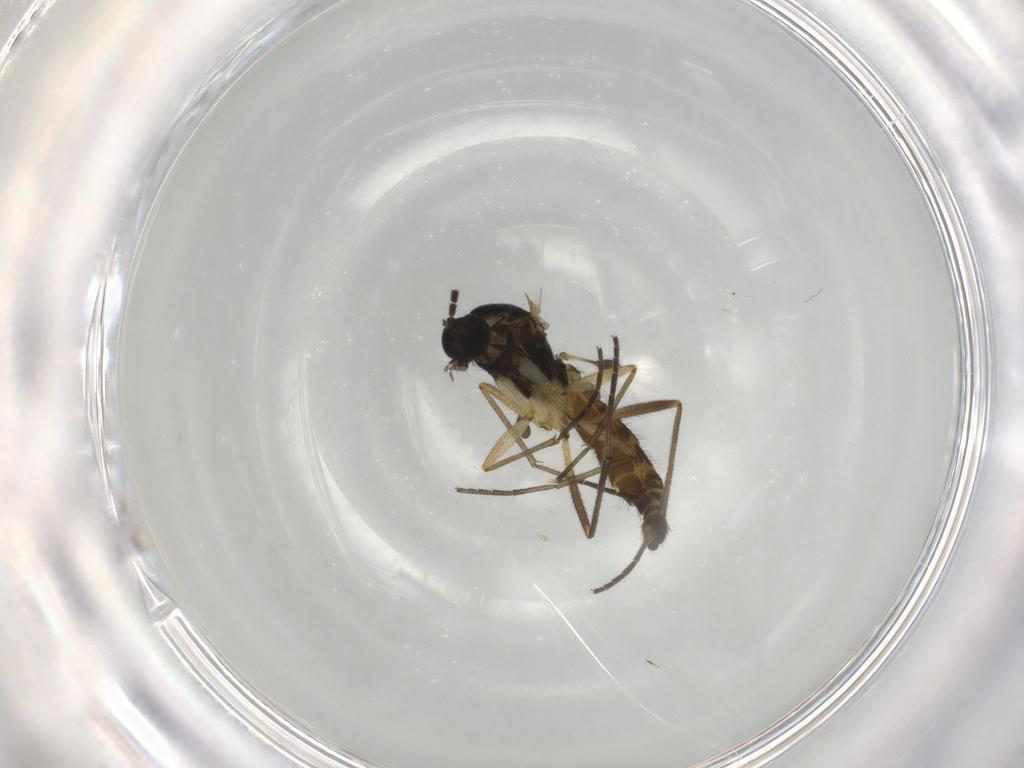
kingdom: Animalia
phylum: Arthropoda
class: Insecta
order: Diptera
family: Sciaridae
